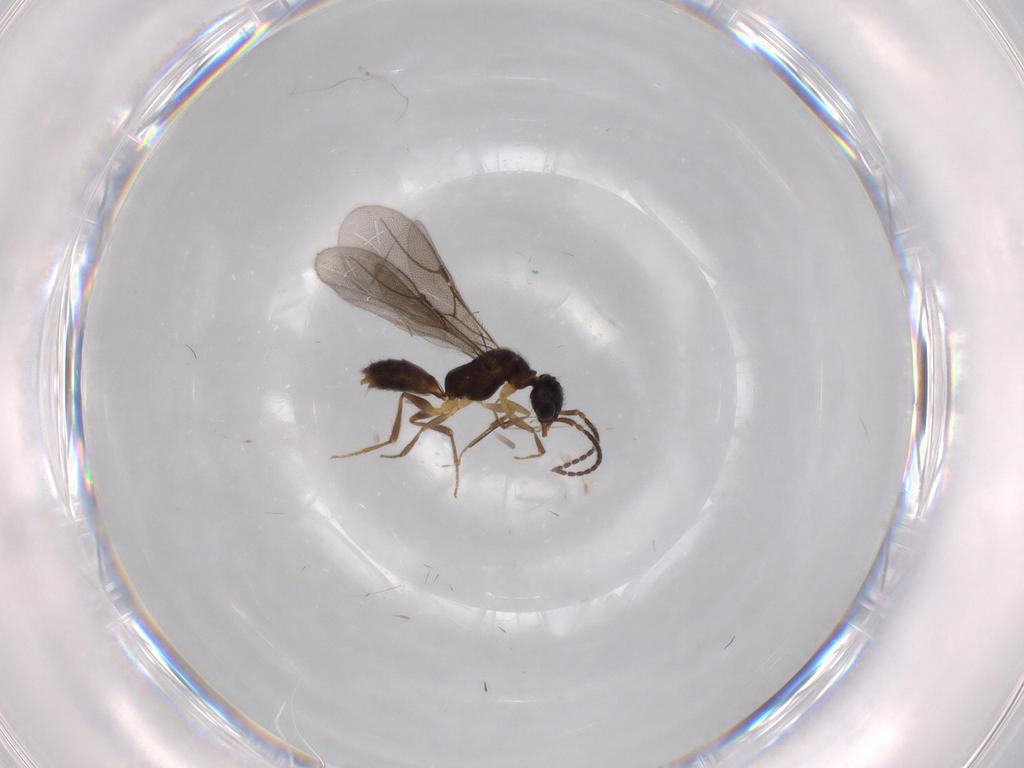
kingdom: Animalia
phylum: Arthropoda
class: Insecta
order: Hymenoptera
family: Bethylidae
